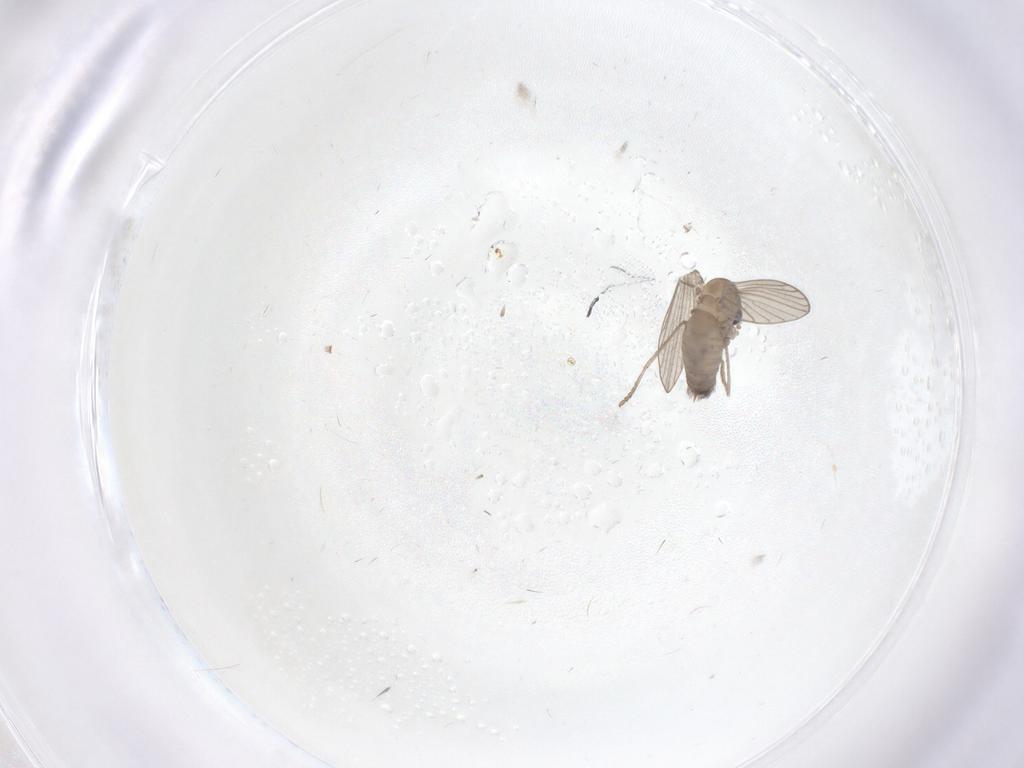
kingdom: Animalia
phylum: Arthropoda
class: Insecta
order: Diptera
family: Psychodidae
